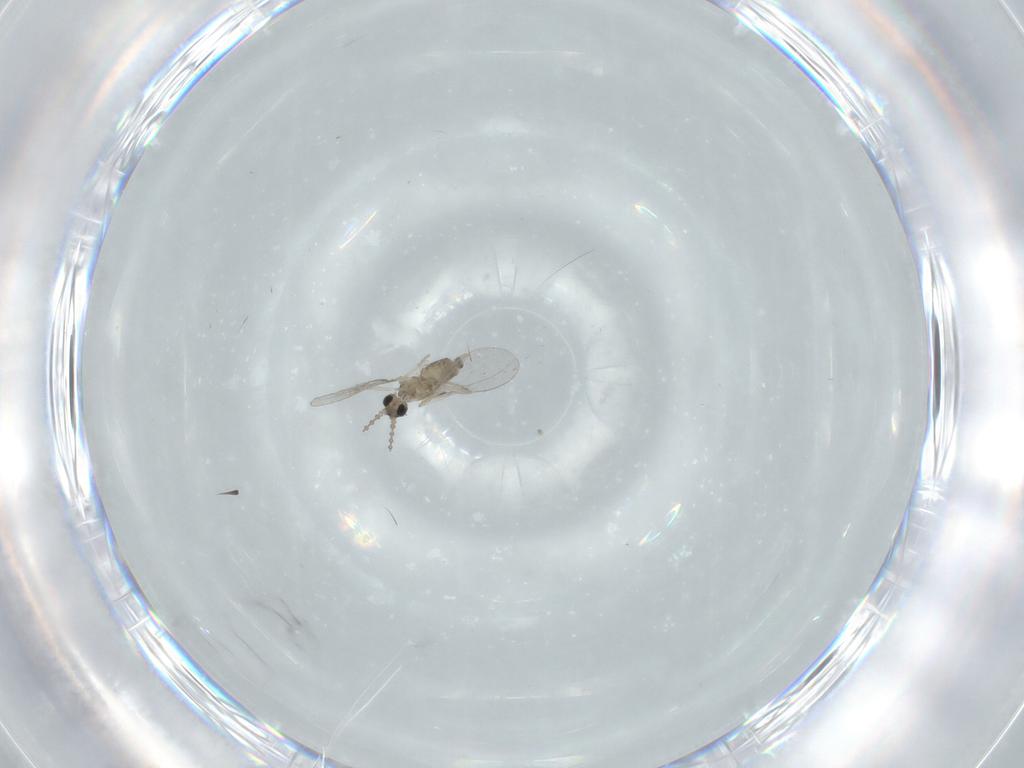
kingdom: Animalia
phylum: Arthropoda
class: Insecta
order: Diptera
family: Cecidomyiidae
